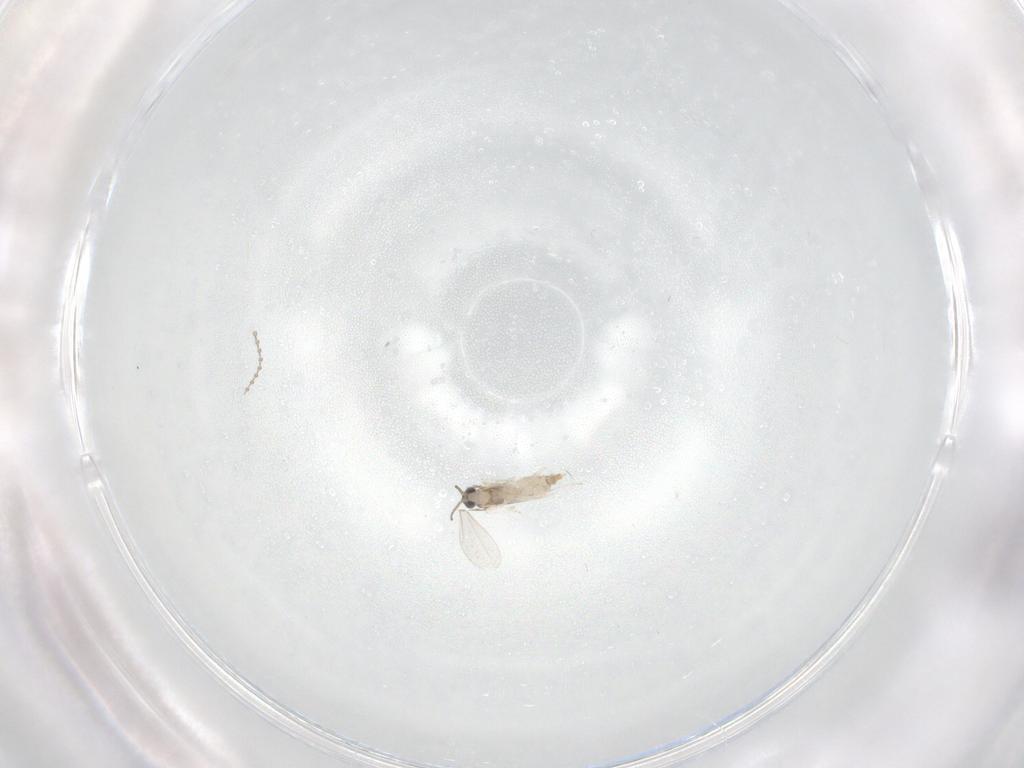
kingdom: Animalia
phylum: Arthropoda
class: Insecta
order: Diptera
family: Cecidomyiidae
